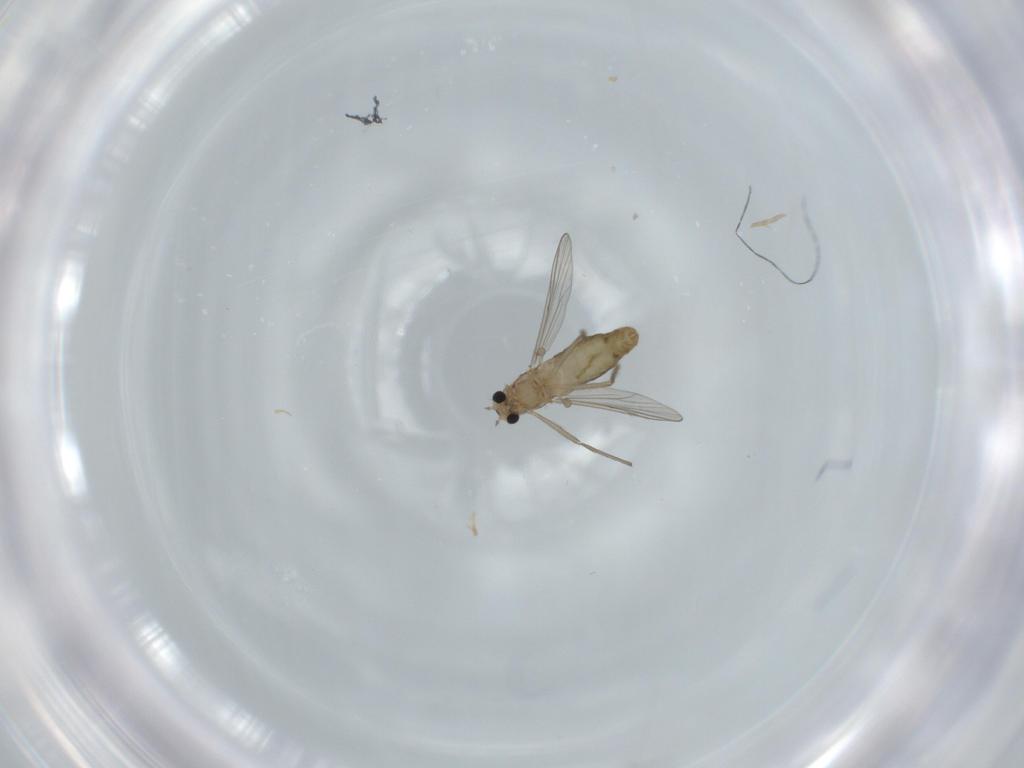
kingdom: Animalia
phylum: Arthropoda
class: Insecta
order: Diptera
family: Chironomidae
